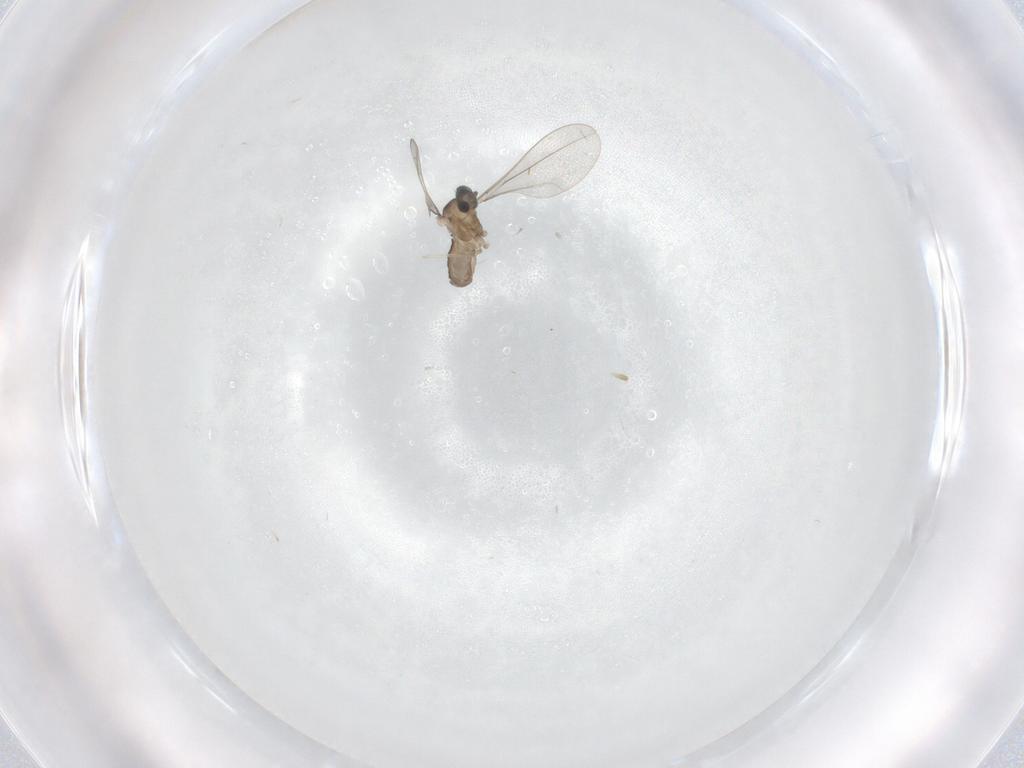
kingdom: Animalia
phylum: Arthropoda
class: Insecta
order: Diptera
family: Cecidomyiidae
